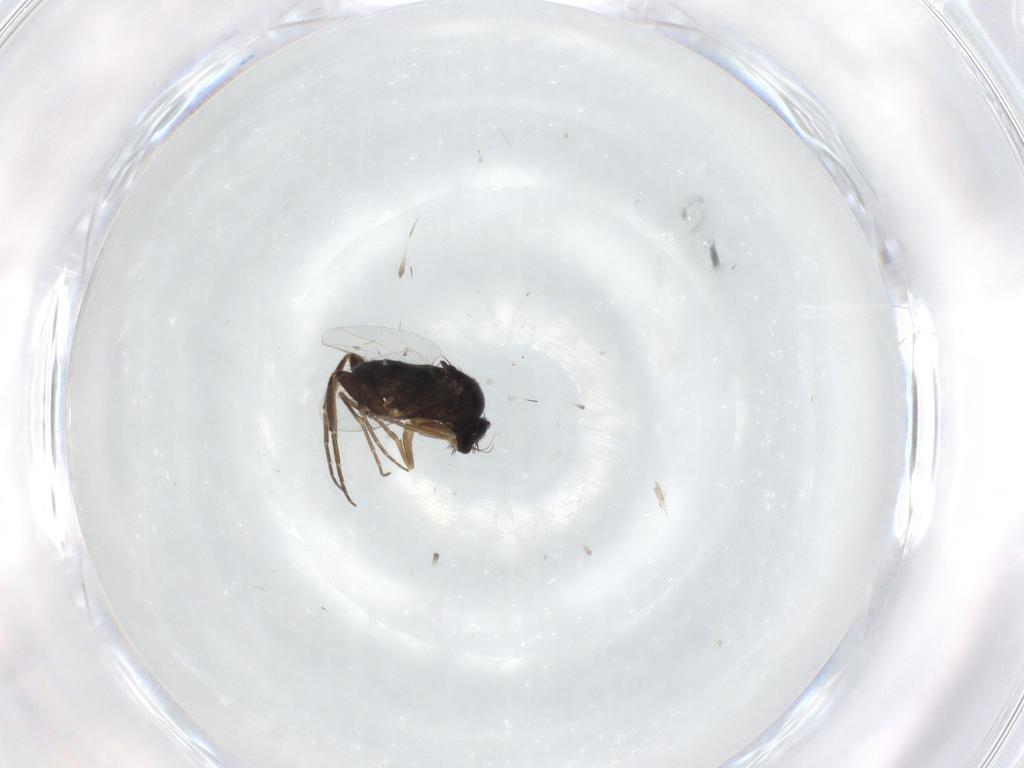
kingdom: Animalia
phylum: Arthropoda
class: Insecta
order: Diptera
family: Phoridae
